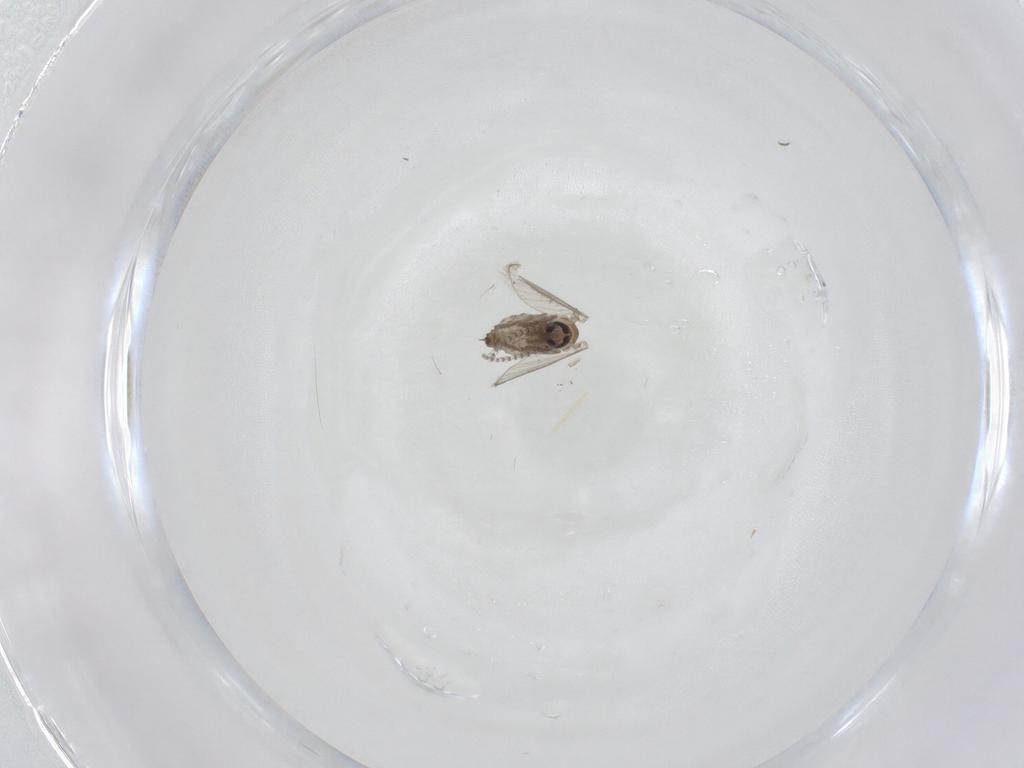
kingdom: Animalia
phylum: Arthropoda
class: Insecta
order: Diptera
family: Psychodidae
